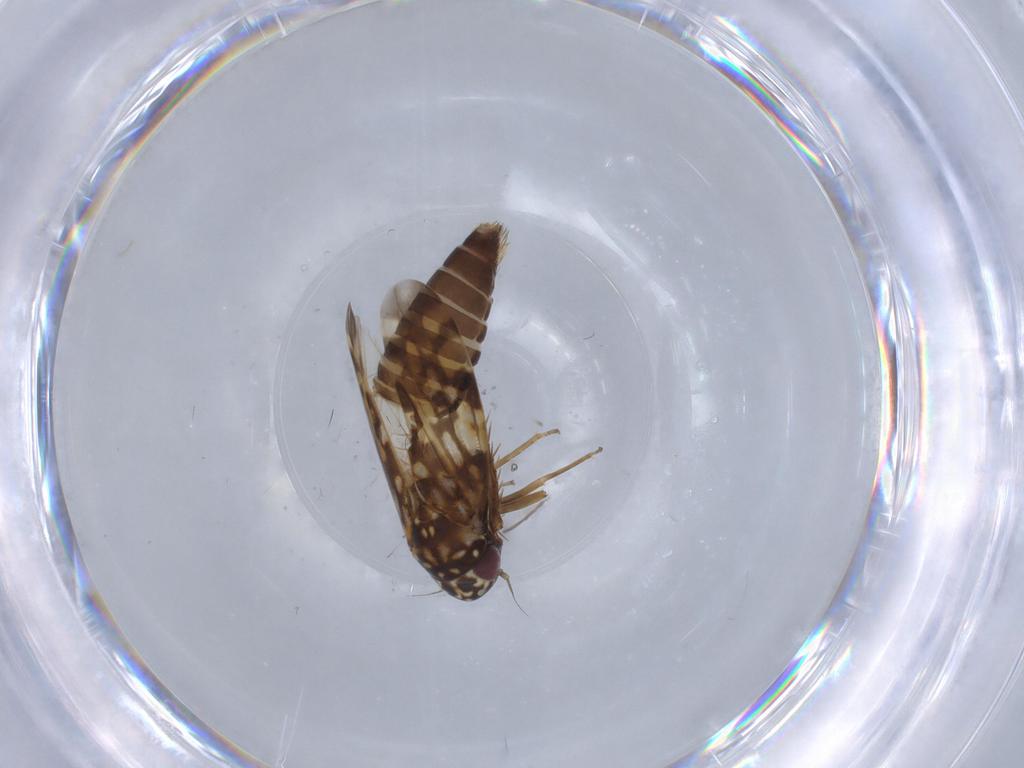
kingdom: Animalia
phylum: Arthropoda
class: Insecta
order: Hemiptera
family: Cicadellidae
